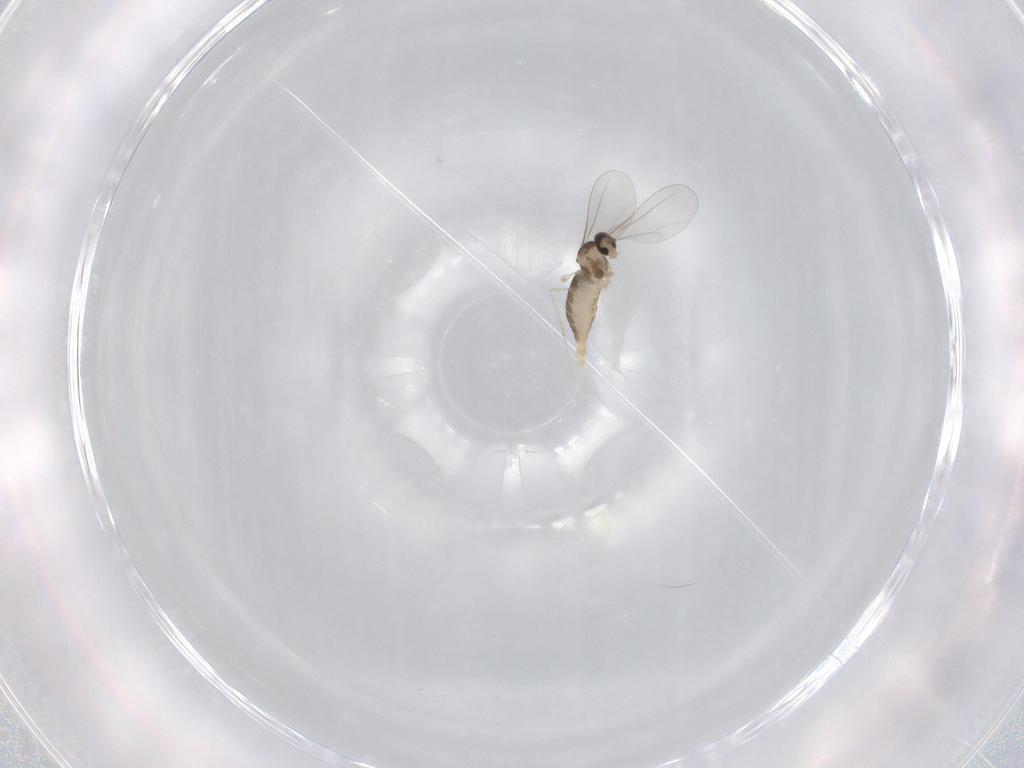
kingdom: Animalia
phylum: Arthropoda
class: Insecta
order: Diptera
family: Cecidomyiidae
